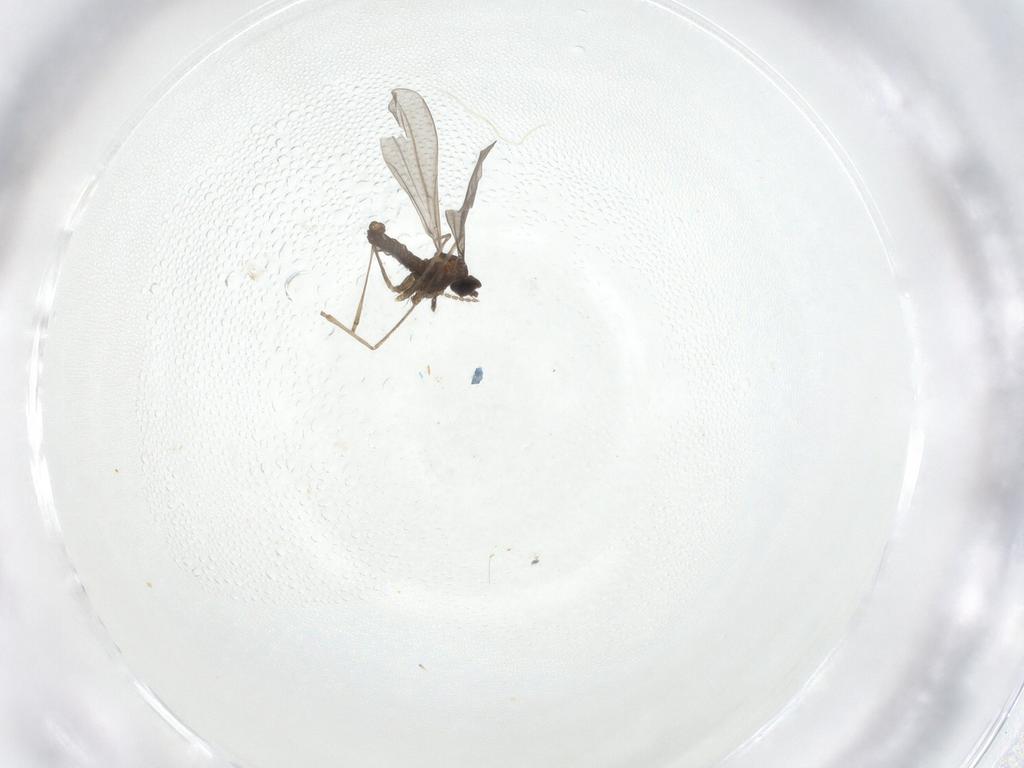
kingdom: Animalia
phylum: Arthropoda
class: Insecta
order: Diptera
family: Cecidomyiidae
